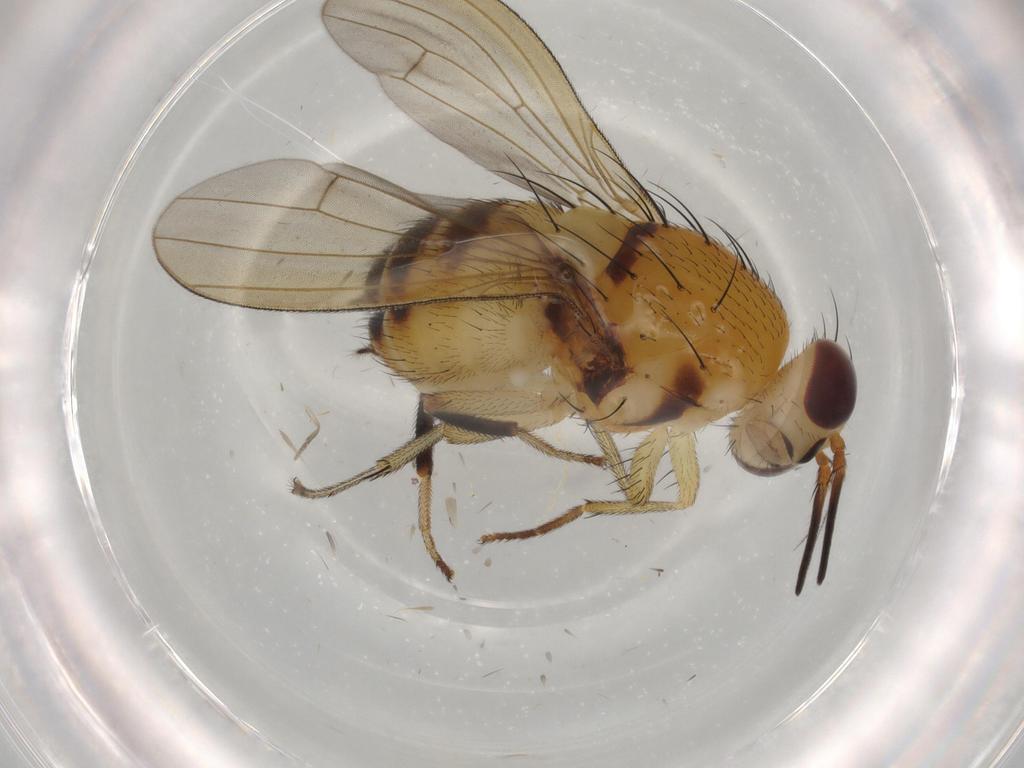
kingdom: Animalia
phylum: Arthropoda
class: Insecta
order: Diptera
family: Lauxaniidae
